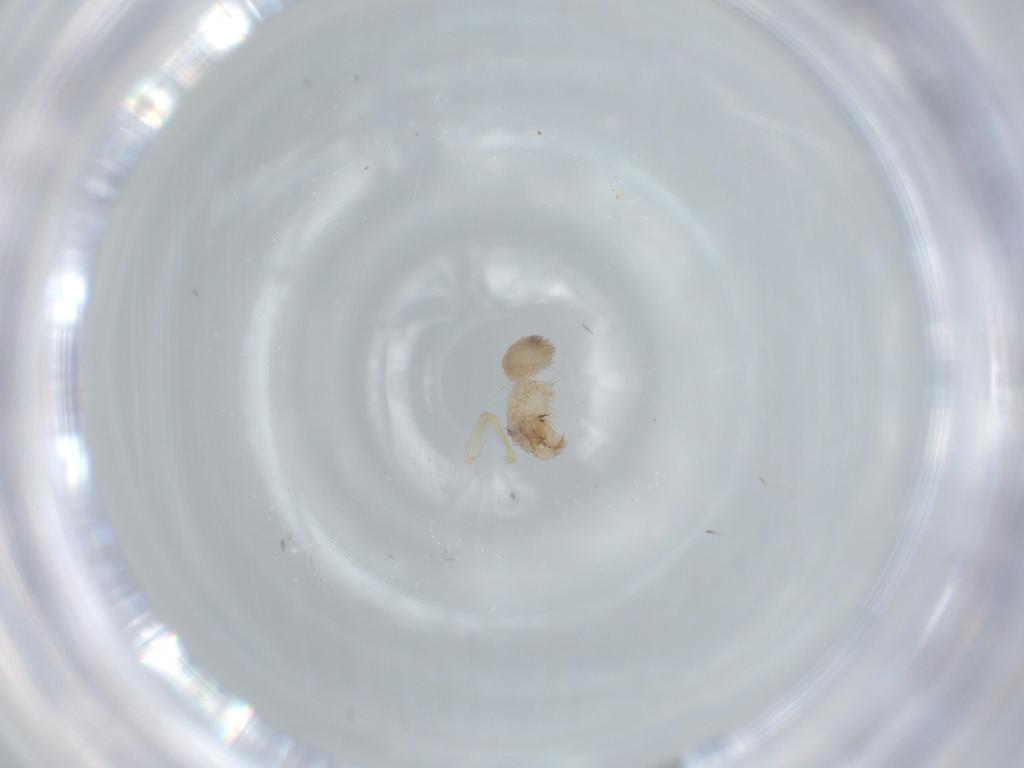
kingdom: Animalia
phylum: Arthropoda
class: Arachnida
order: Araneae
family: Oonopidae
